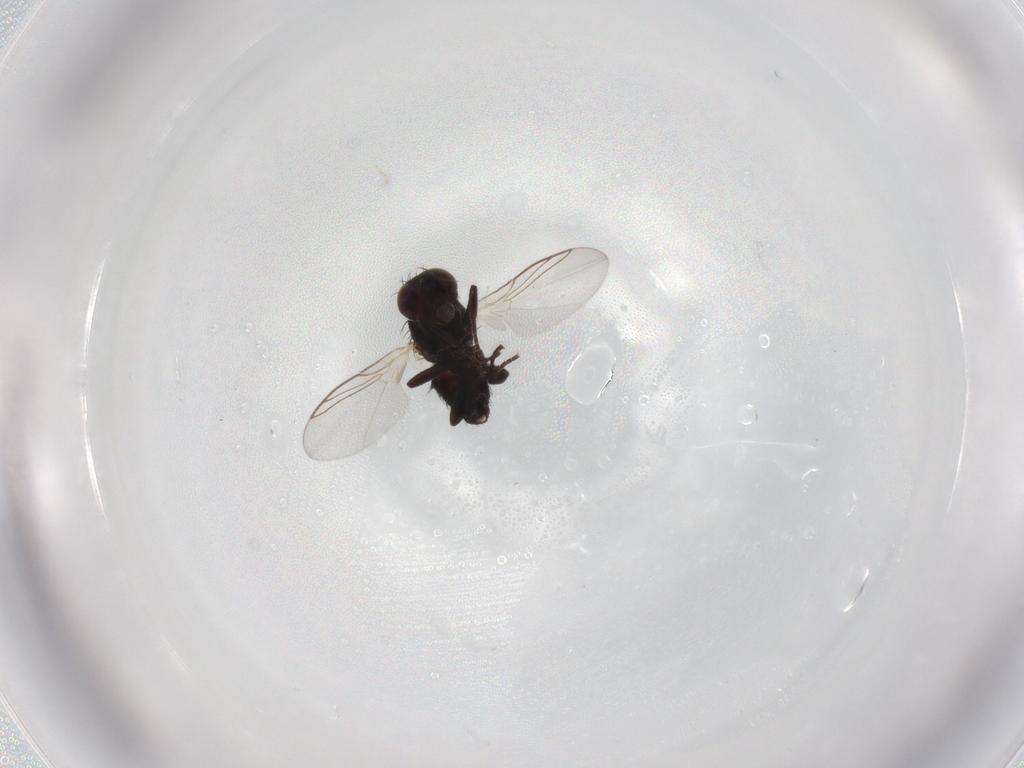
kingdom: Animalia
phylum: Arthropoda
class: Insecta
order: Diptera
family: Agromyzidae
